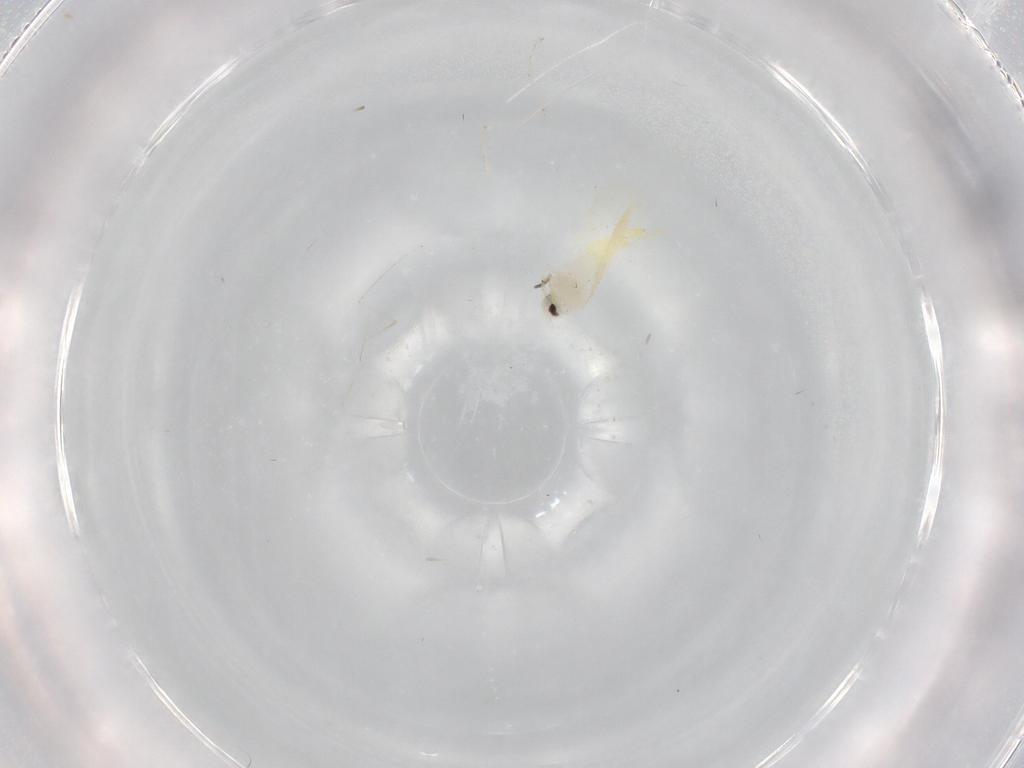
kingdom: Animalia
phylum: Arthropoda
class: Insecta
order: Diptera
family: Cecidomyiidae
